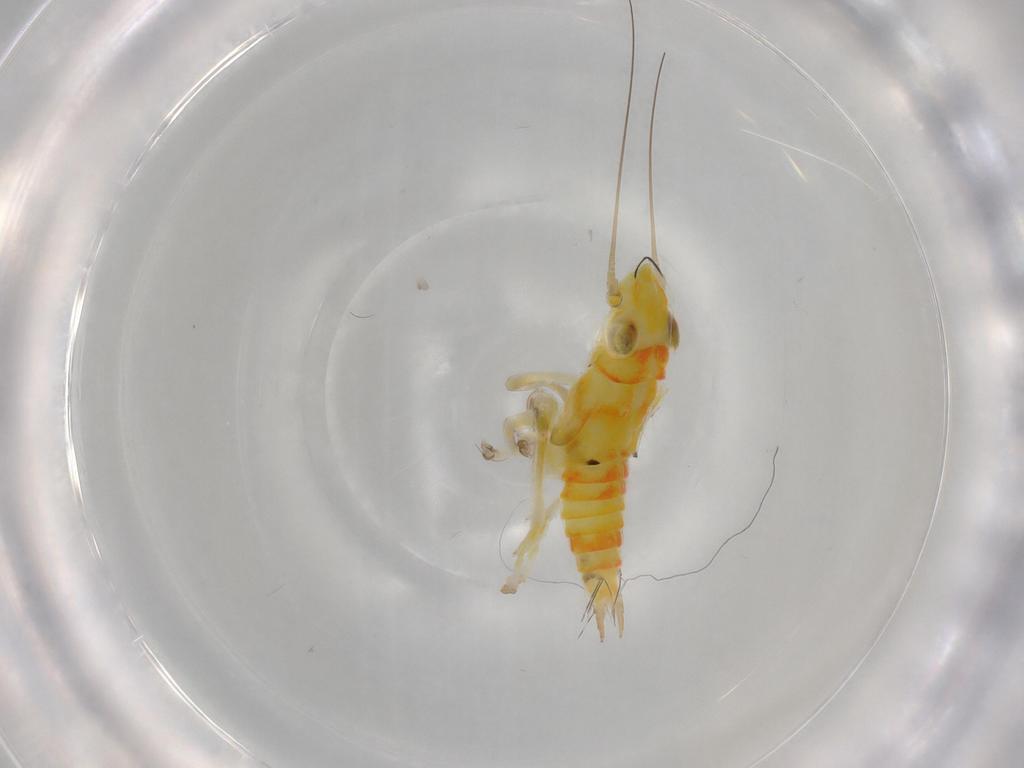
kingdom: Animalia
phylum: Arthropoda
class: Insecta
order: Hemiptera
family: Cicadellidae
